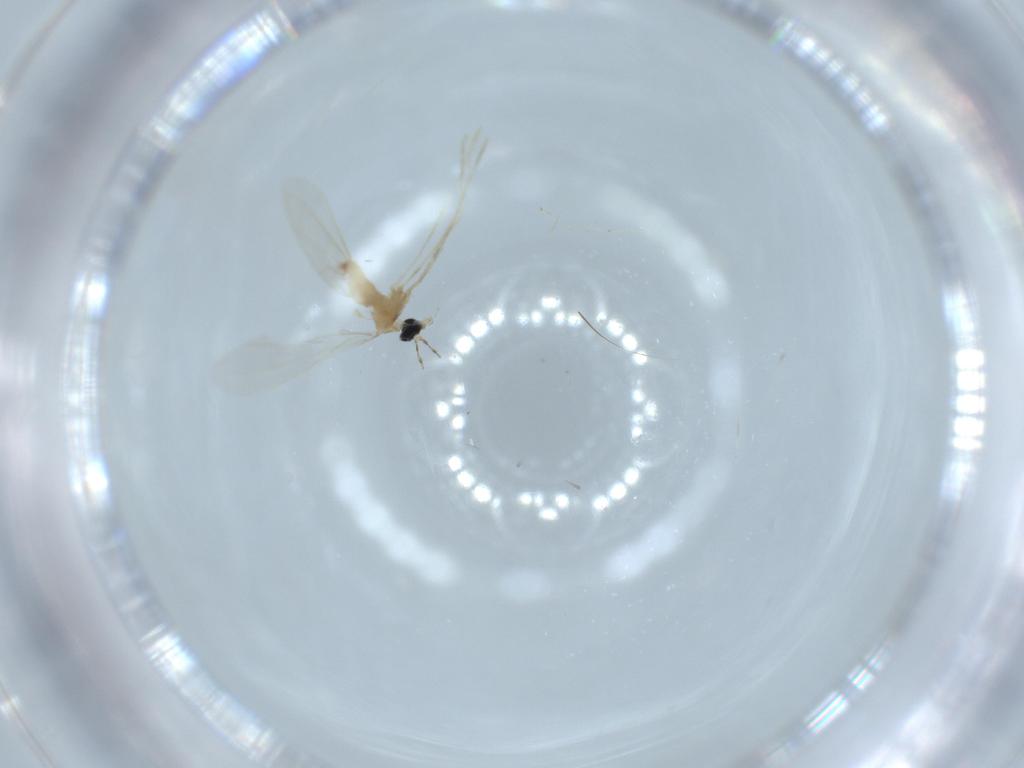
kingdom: Animalia
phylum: Arthropoda
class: Insecta
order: Diptera
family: Cecidomyiidae
